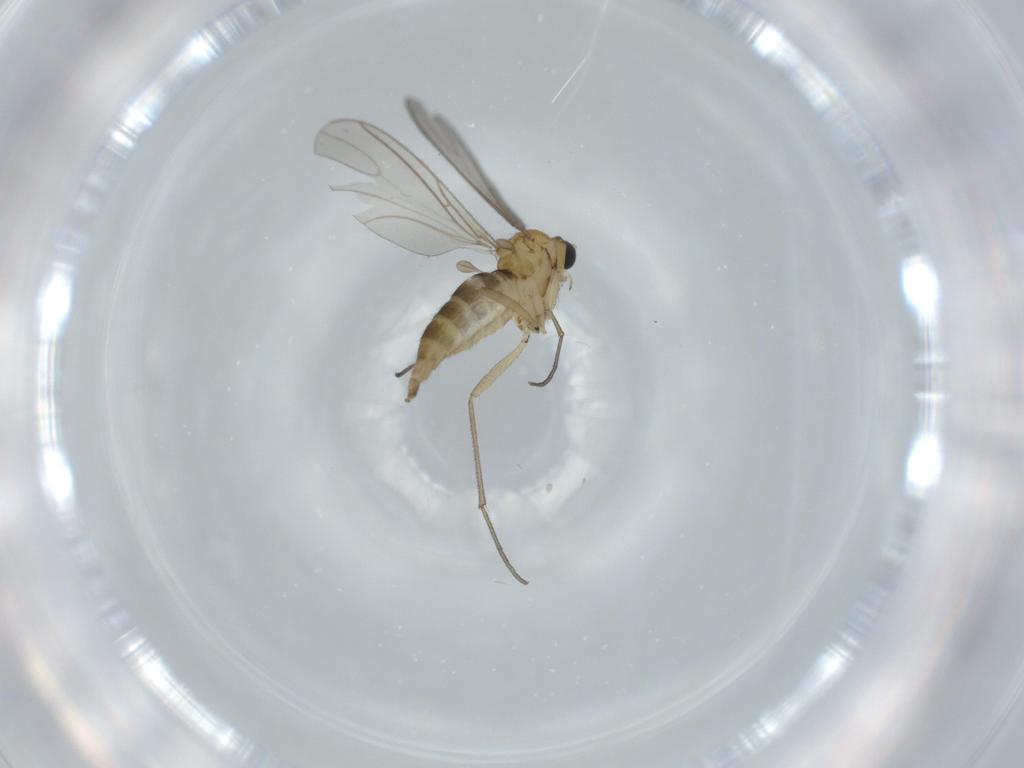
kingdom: Animalia
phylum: Arthropoda
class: Insecta
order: Diptera
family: Sciaridae
